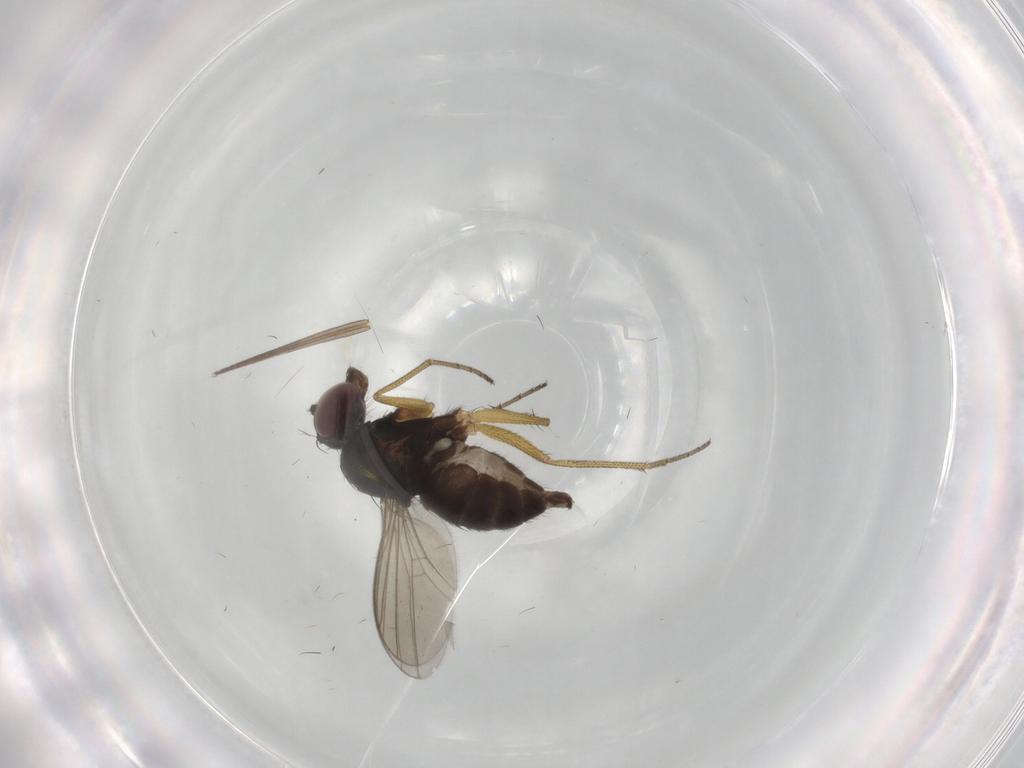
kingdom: Animalia
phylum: Arthropoda
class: Insecta
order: Diptera
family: Dolichopodidae
